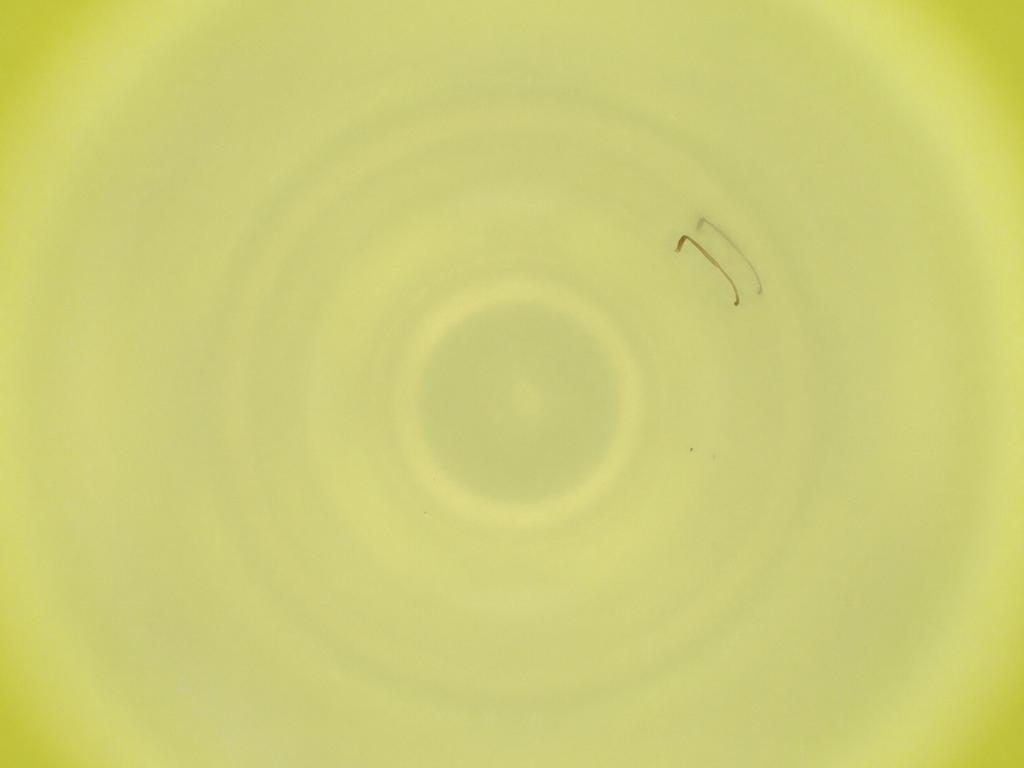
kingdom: Animalia
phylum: Arthropoda
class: Insecta
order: Diptera
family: Cecidomyiidae
